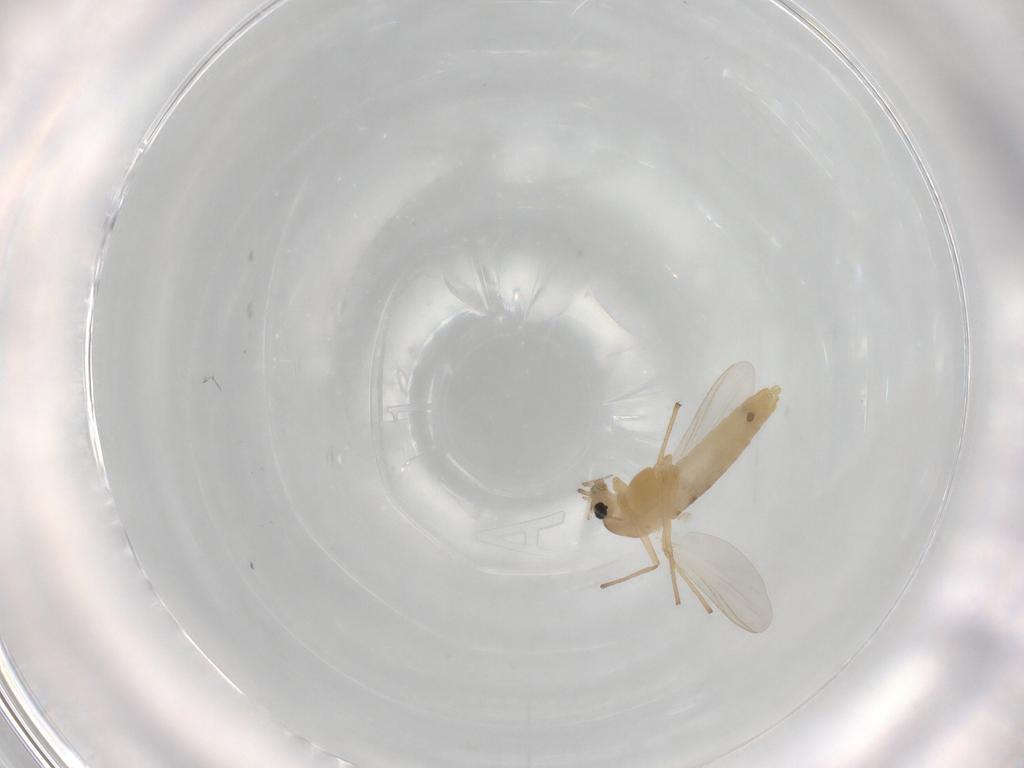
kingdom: Animalia
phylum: Arthropoda
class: Insecta
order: Diptera
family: Chironomidae
